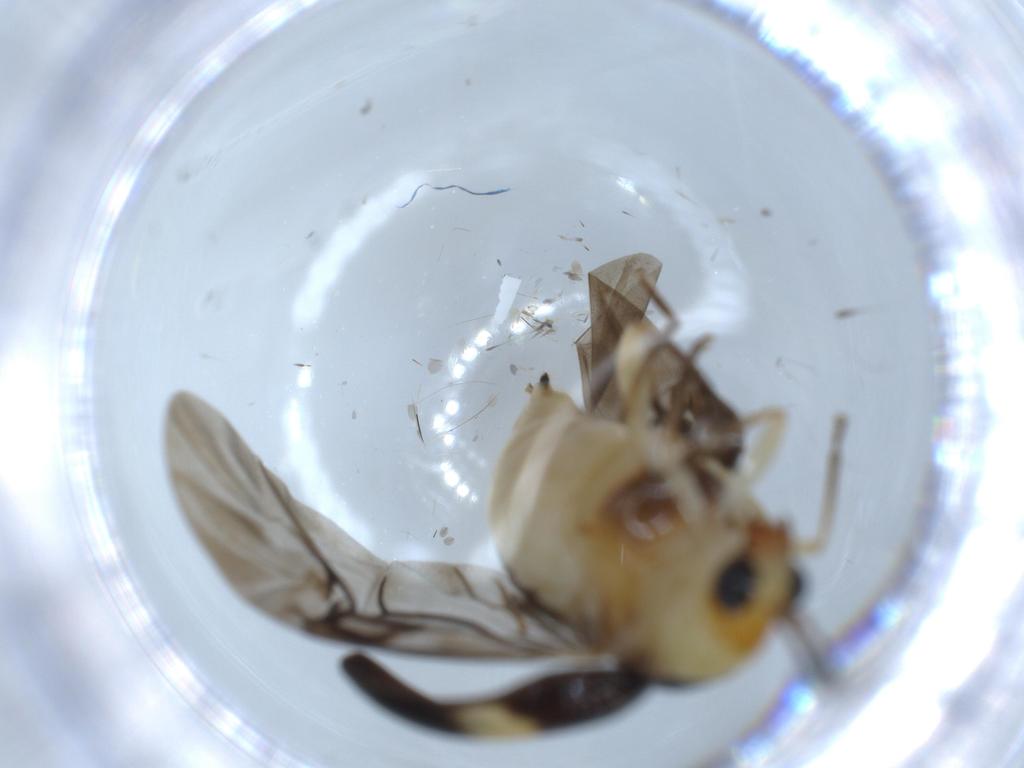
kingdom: Animalia
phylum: Arthropoda
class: Insecta
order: Coleoptera
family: Chrysomelidae
